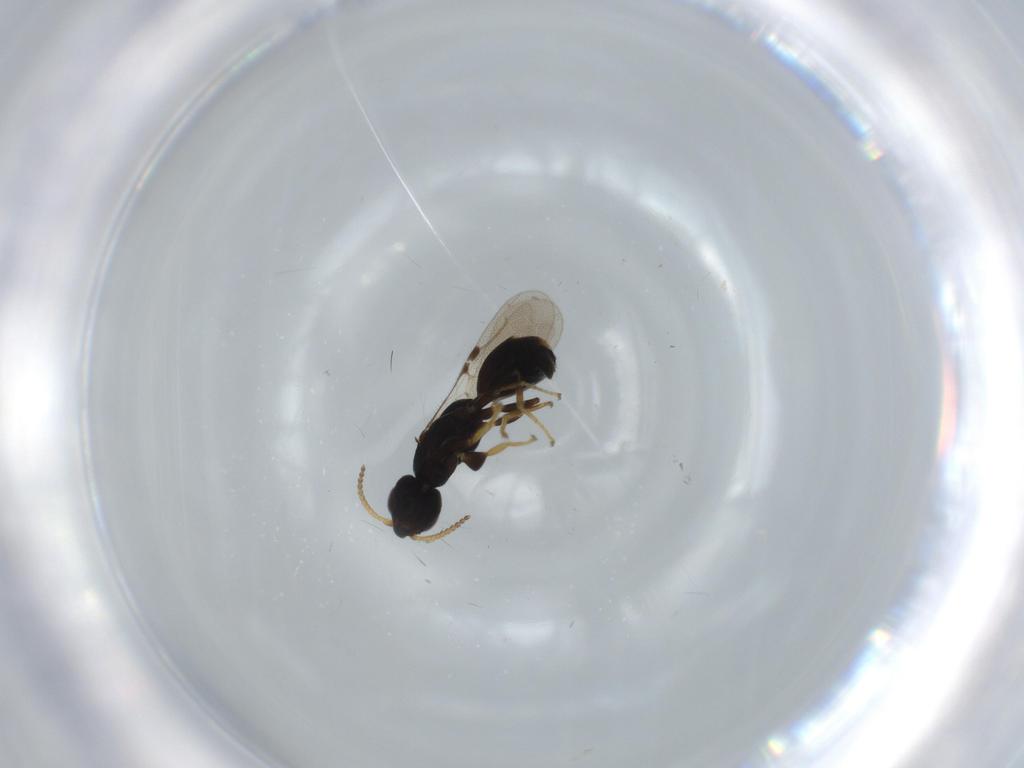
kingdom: Animalia
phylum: Arthropoda
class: Insecta
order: Hymenoptera
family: Bethylidae
